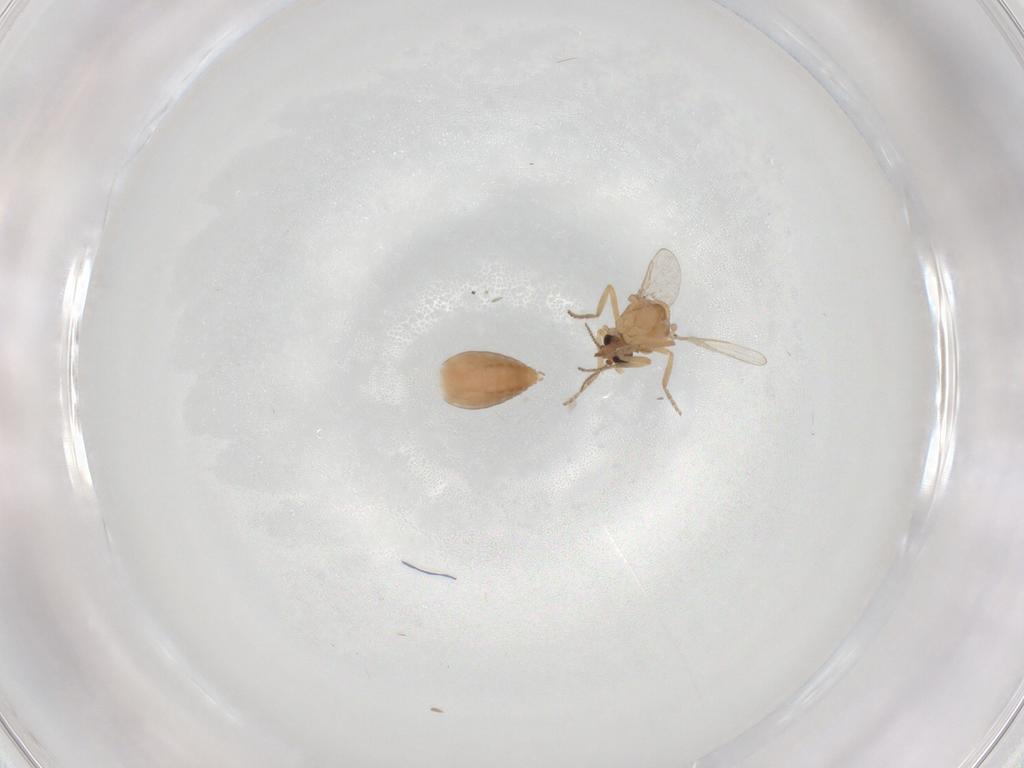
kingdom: Animalia
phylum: Arthropoda
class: Insecta
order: Diptera
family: Ceratopogonidae
